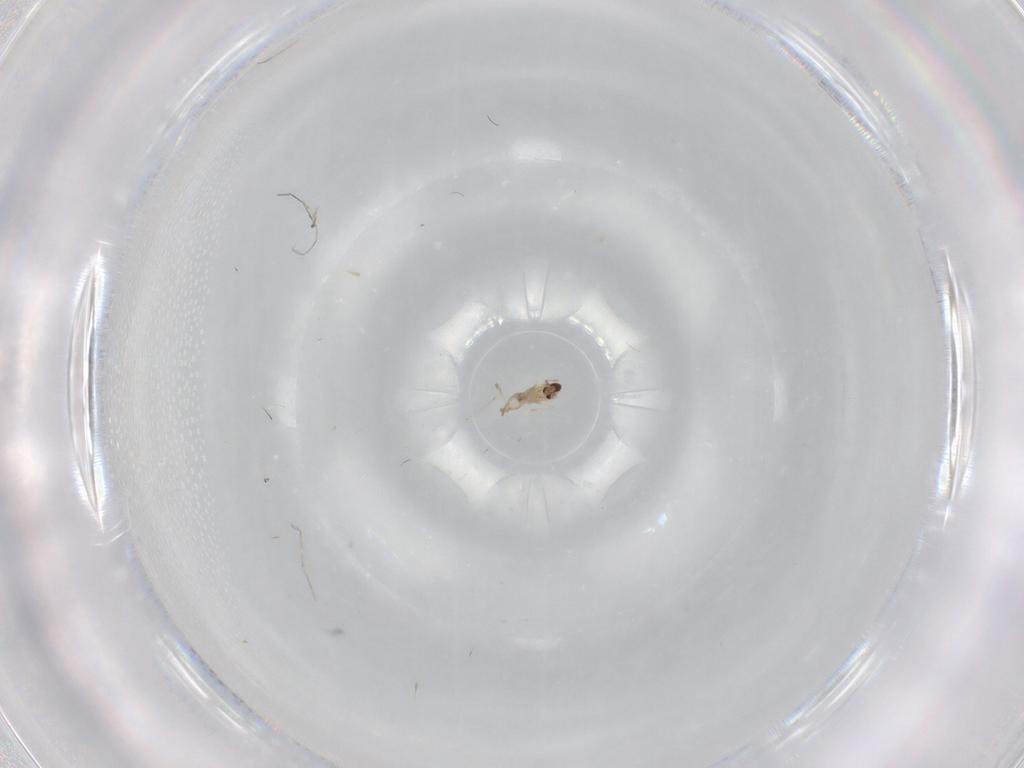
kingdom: Animalia
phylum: Arthropoda
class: Insecta
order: Diptera
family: Cecidomyiidae
